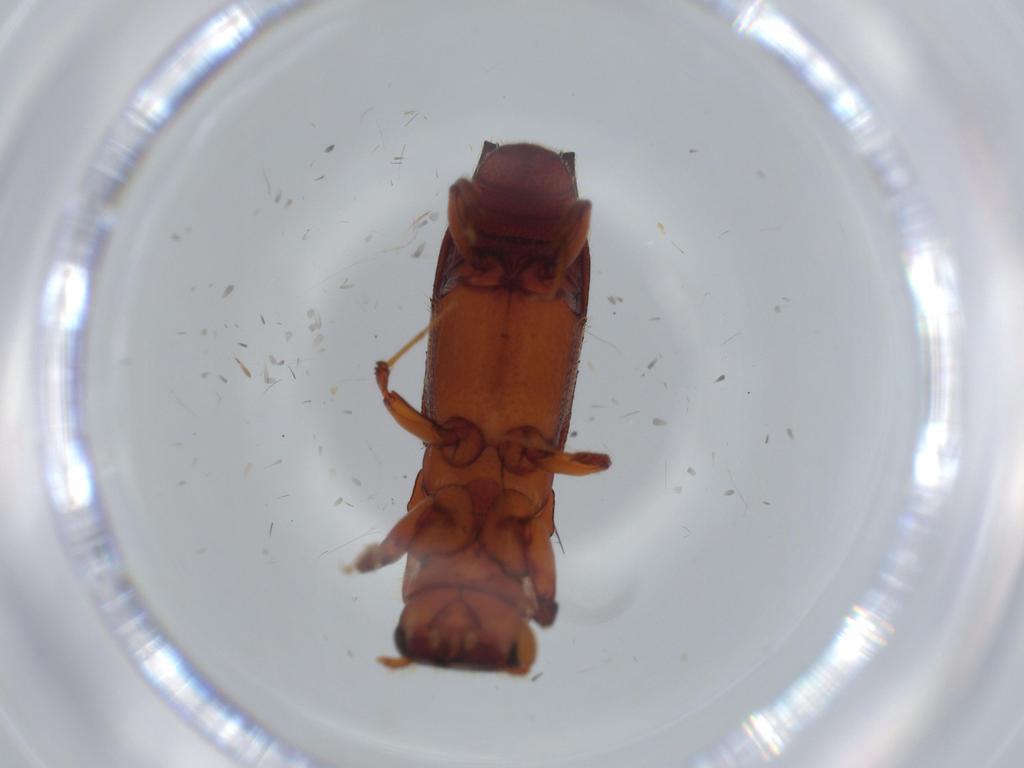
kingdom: Animalia
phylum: Arthropoda
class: Insecta
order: Coleoptera
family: Curculionidae
